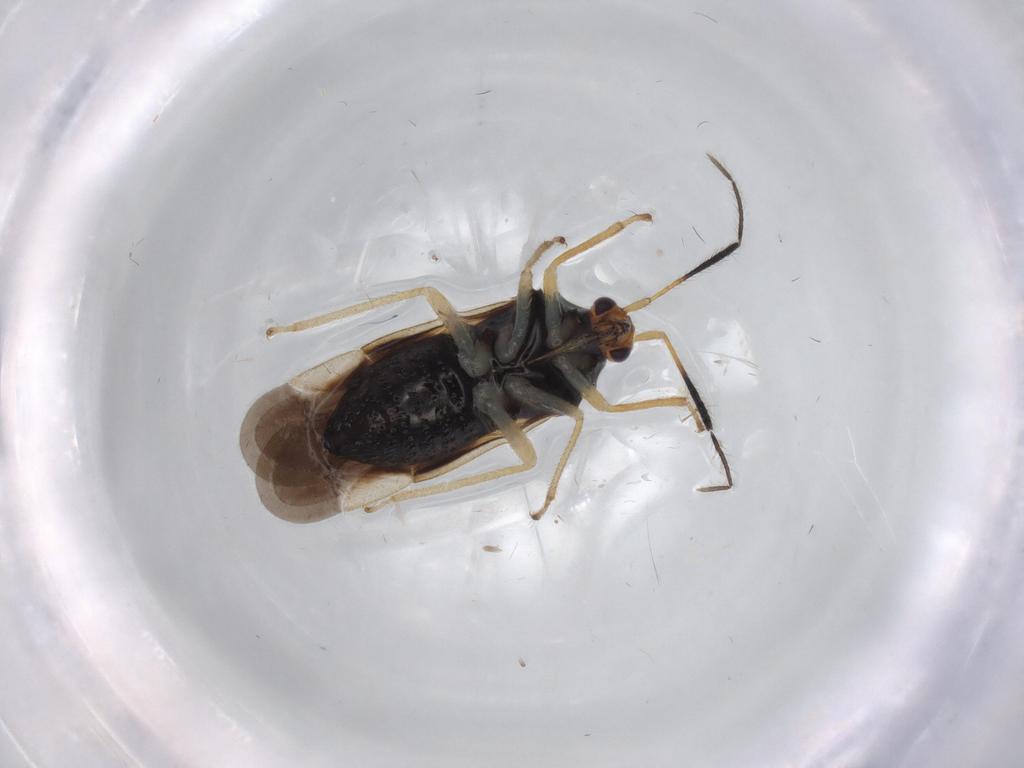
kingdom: Animalia
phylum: Arthropoda
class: Insecta
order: Hemiptera
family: Miridae
